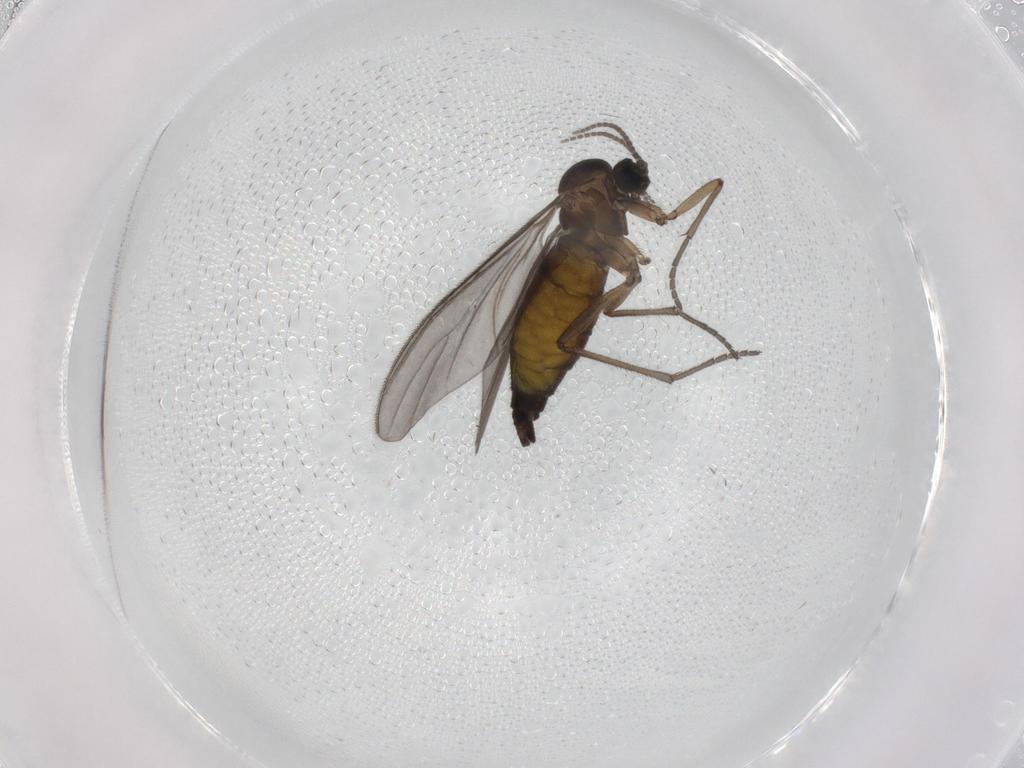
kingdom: Animalia
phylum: Arthropoda
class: Insecta
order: Diptera
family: Sciaridae
